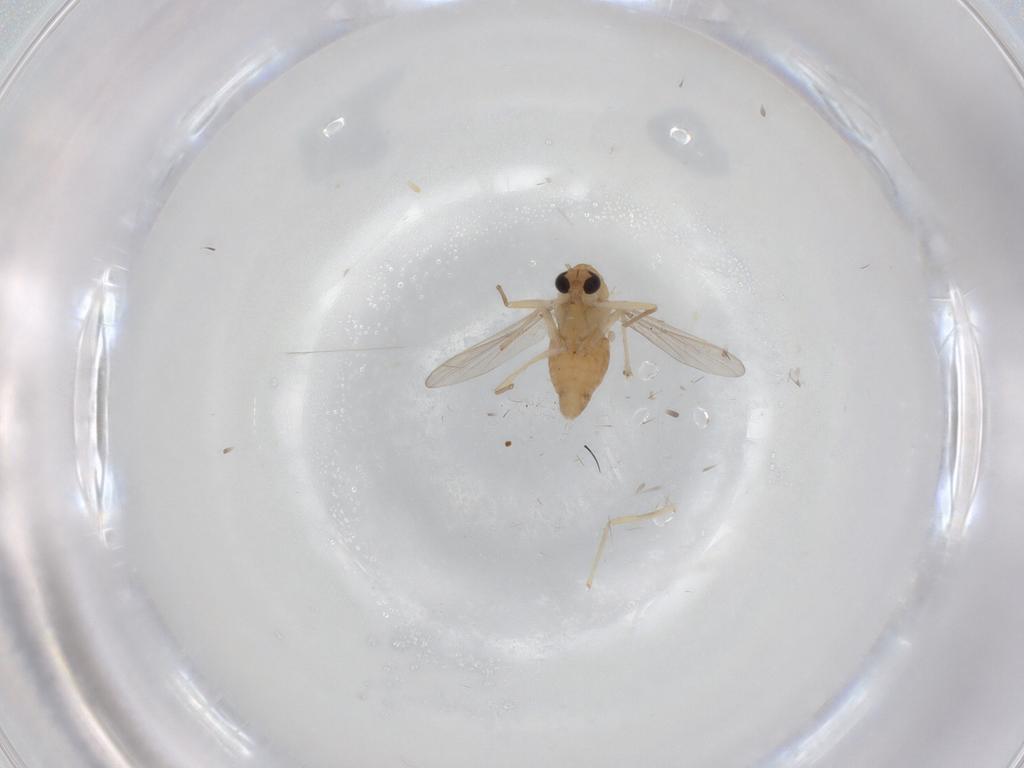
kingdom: Animalia
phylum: Arthropoda
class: Insecta
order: Diptera
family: Chironomidae
